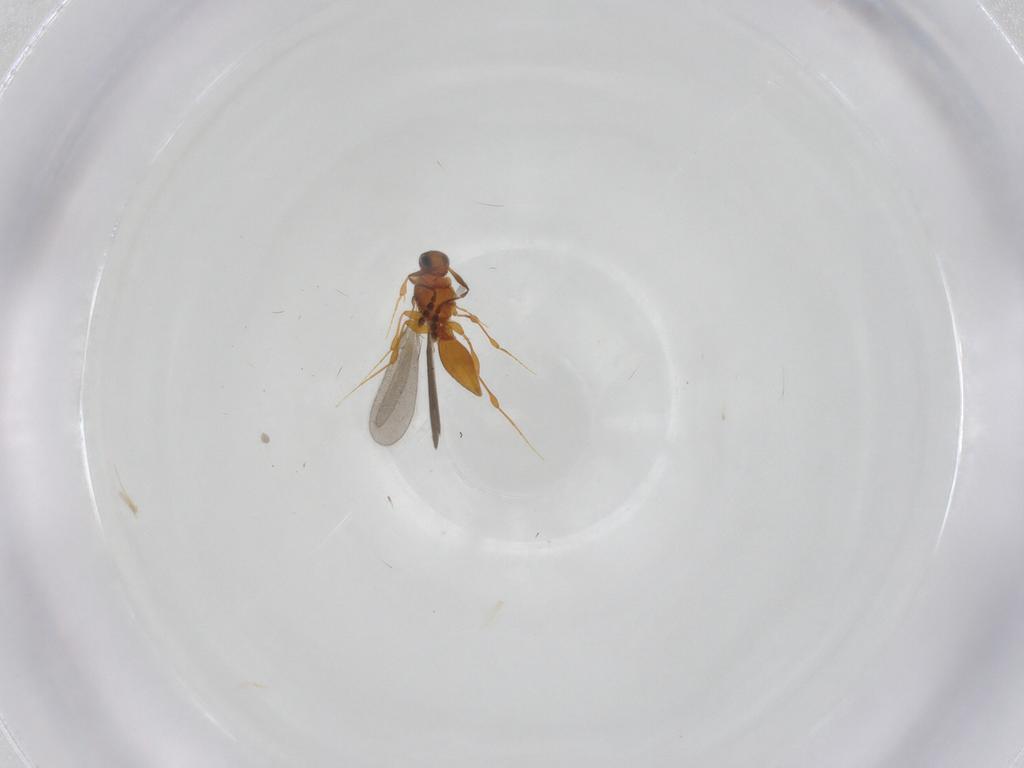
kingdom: Animalia
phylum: Arthropoda
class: Insecta
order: Hymenoptera
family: Platygastridae
